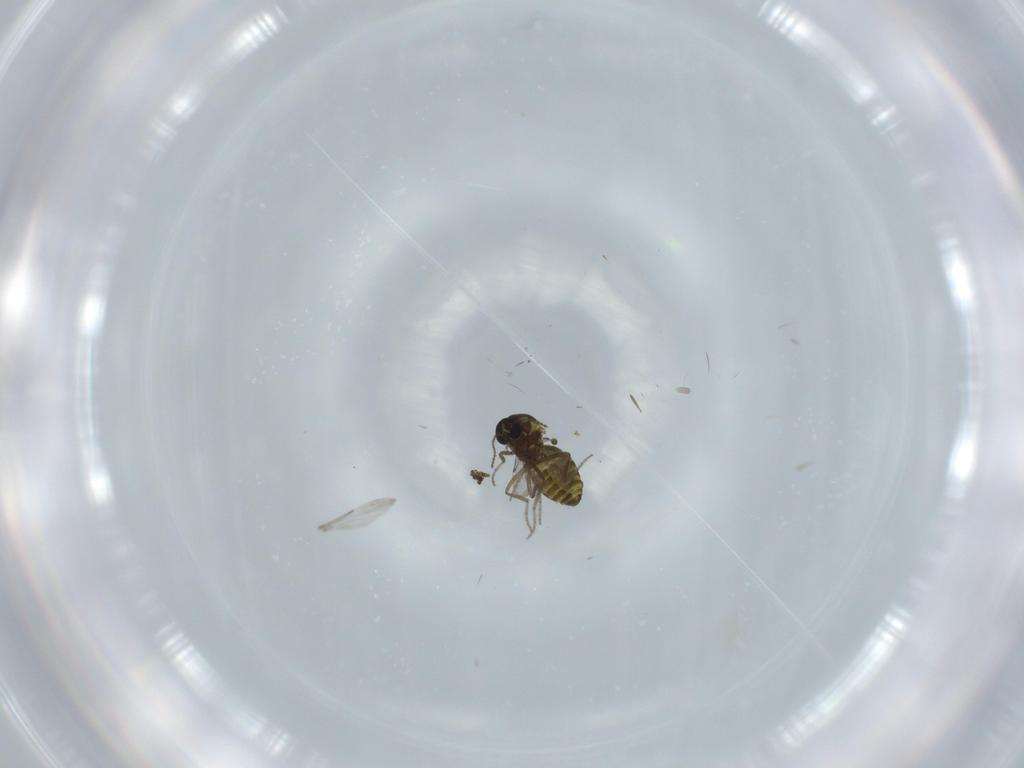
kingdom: Animalia
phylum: Arthropoda
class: Insecta
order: Diptera
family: Ceratopogonidae
